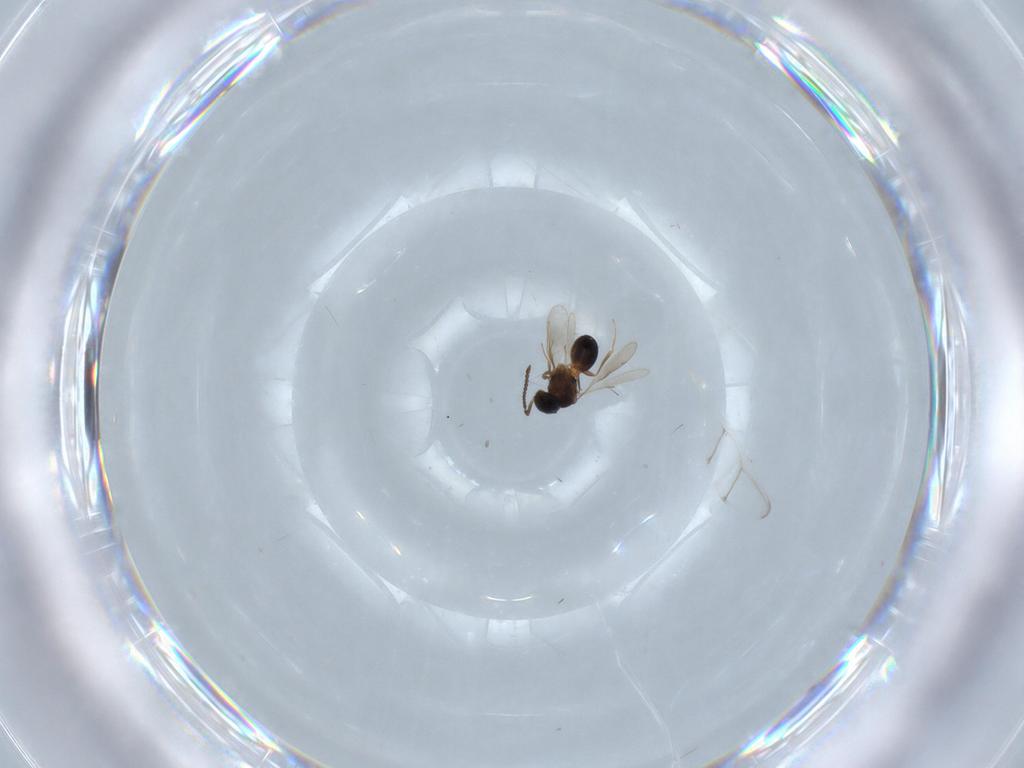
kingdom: Animalia
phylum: Arthropoda
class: Insecta
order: Hymenoptera
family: Scelionidae
